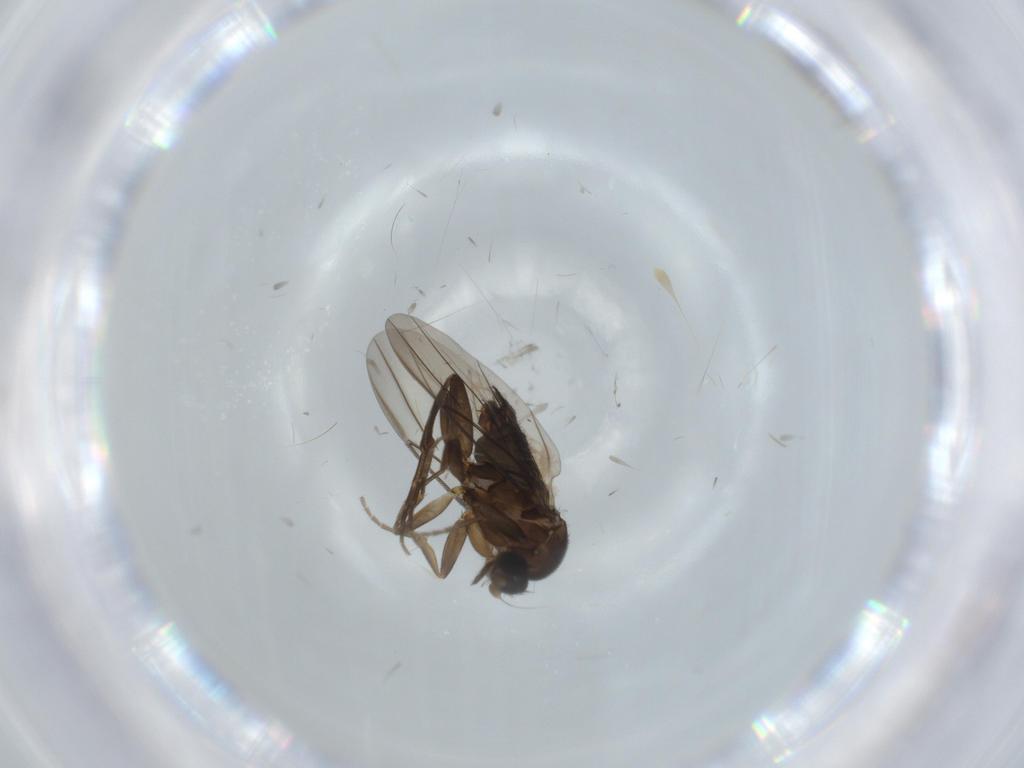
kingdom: Animalia
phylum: Arthropoda
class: Insecta
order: Diptera
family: Cecidomyiidae
